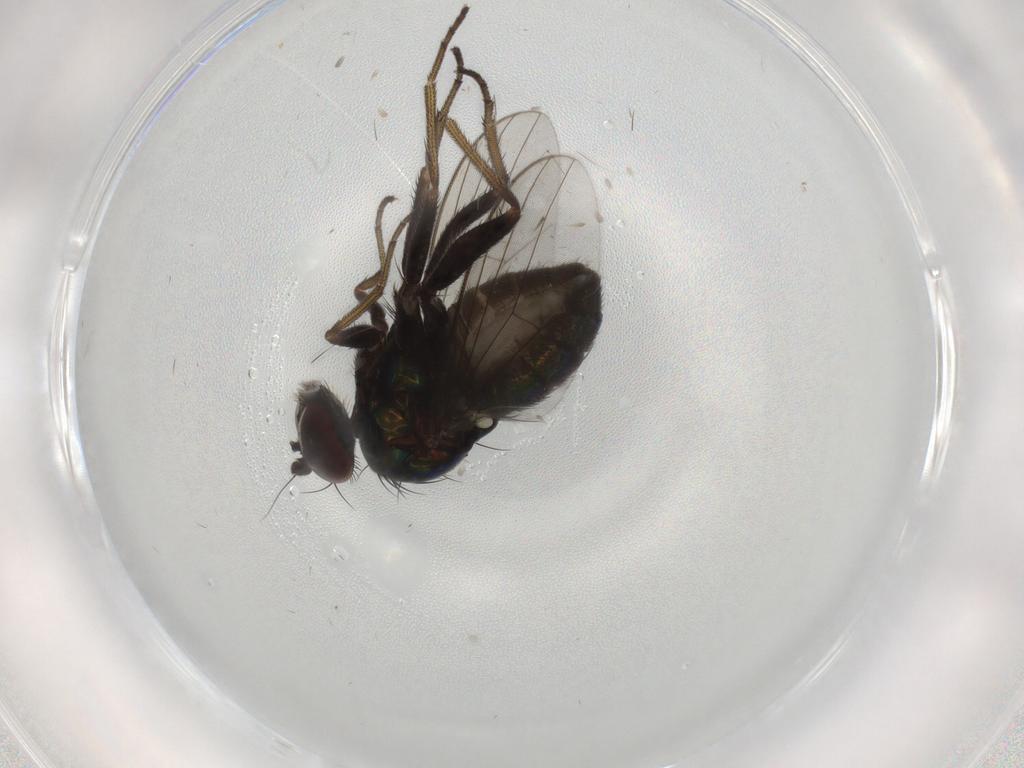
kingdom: Animalia
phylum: Arthropoda
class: Insecta
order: Diptera
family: Dolichopodidae
